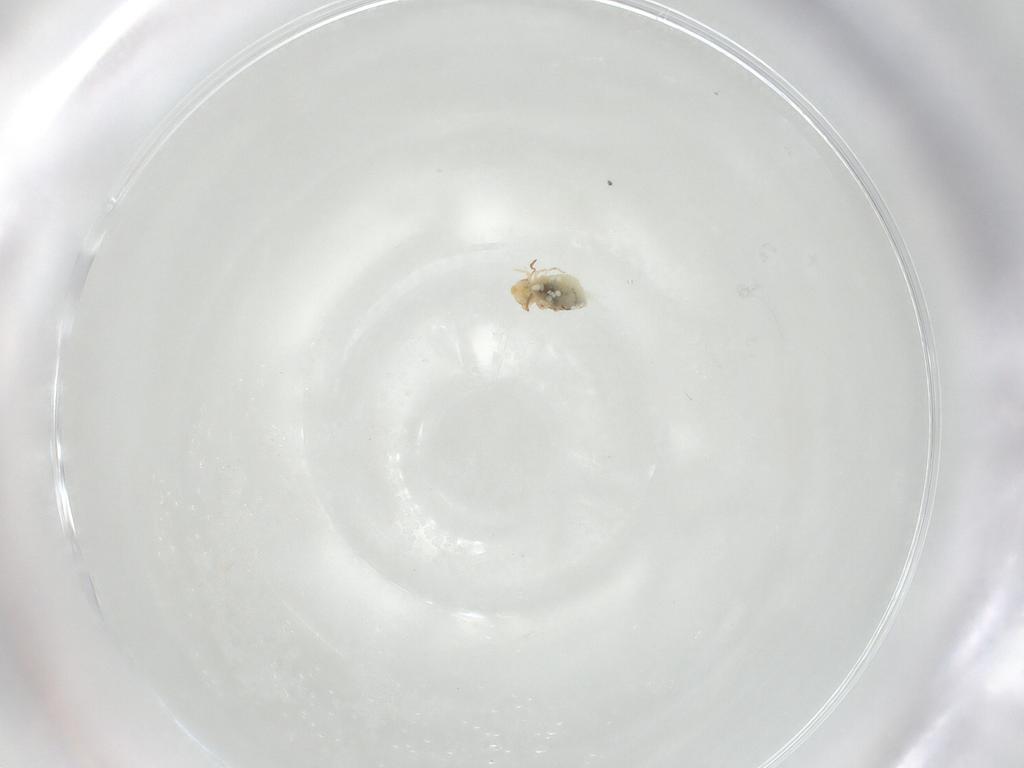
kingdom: Animalia
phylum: Arthropoda
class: Collembola
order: Symphypleona
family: Bourletiellidae
